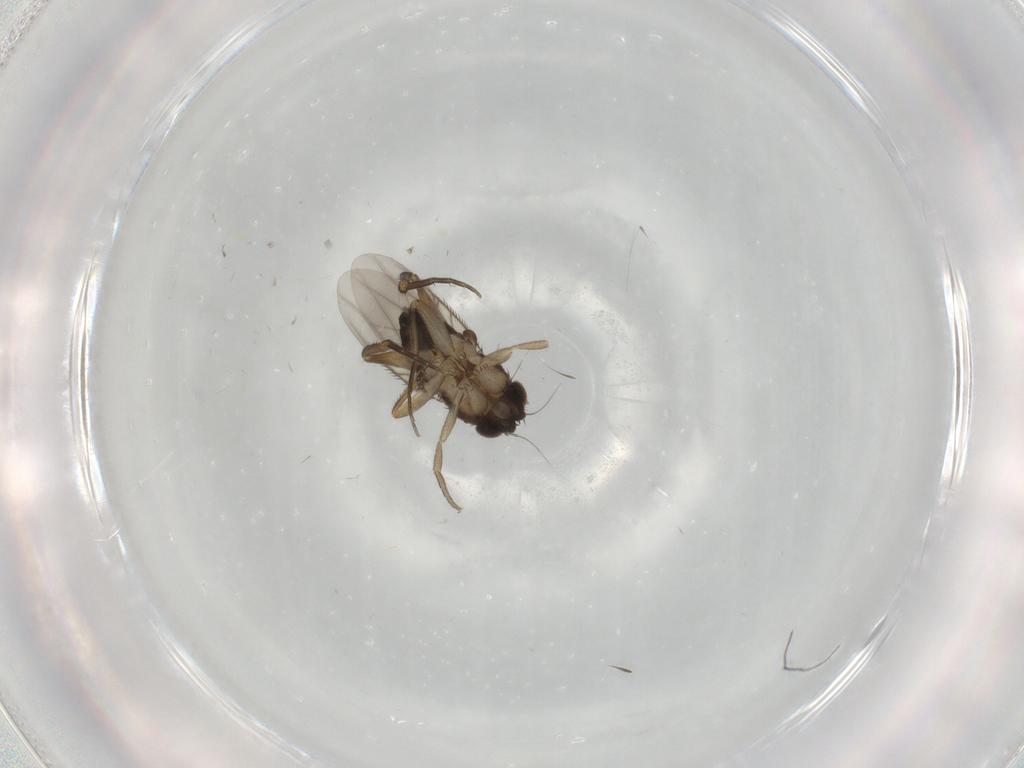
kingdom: Animalia
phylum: Arthropoda
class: Insecta
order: Diptera
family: Phoridae
